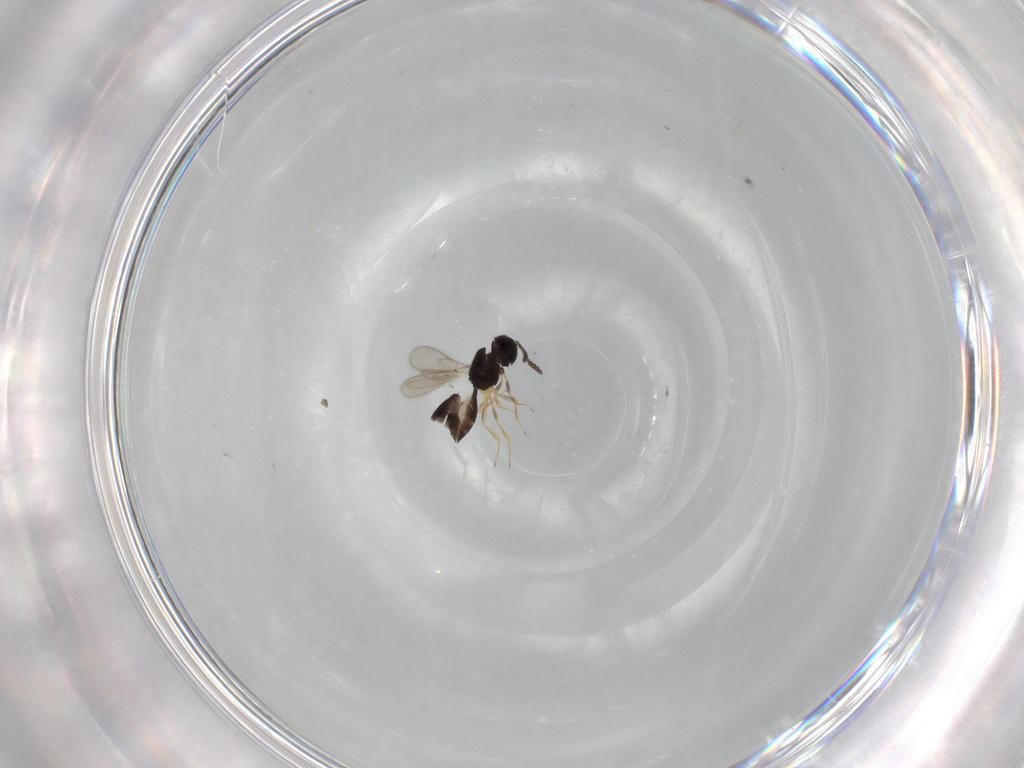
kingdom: Animalia
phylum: Arthropoda
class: Insecta
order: Hymenoptera
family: Scelionidae
